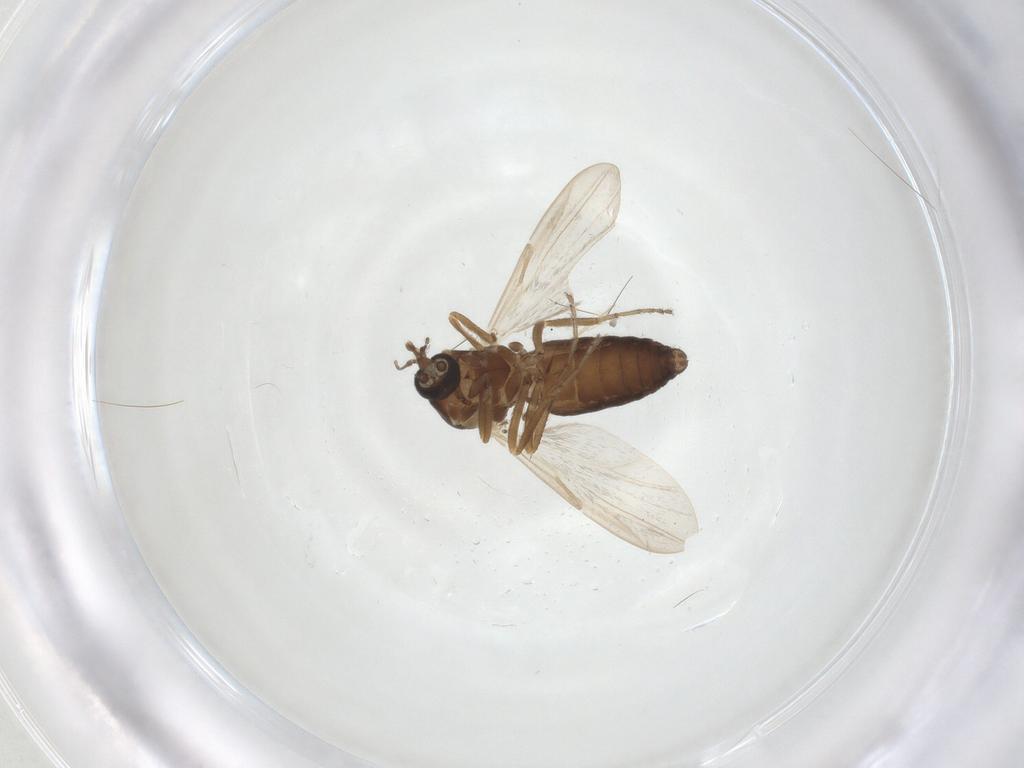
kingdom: Animalia
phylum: Arthropoda
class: Insecta
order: Diptera
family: Ceratopogonidae
